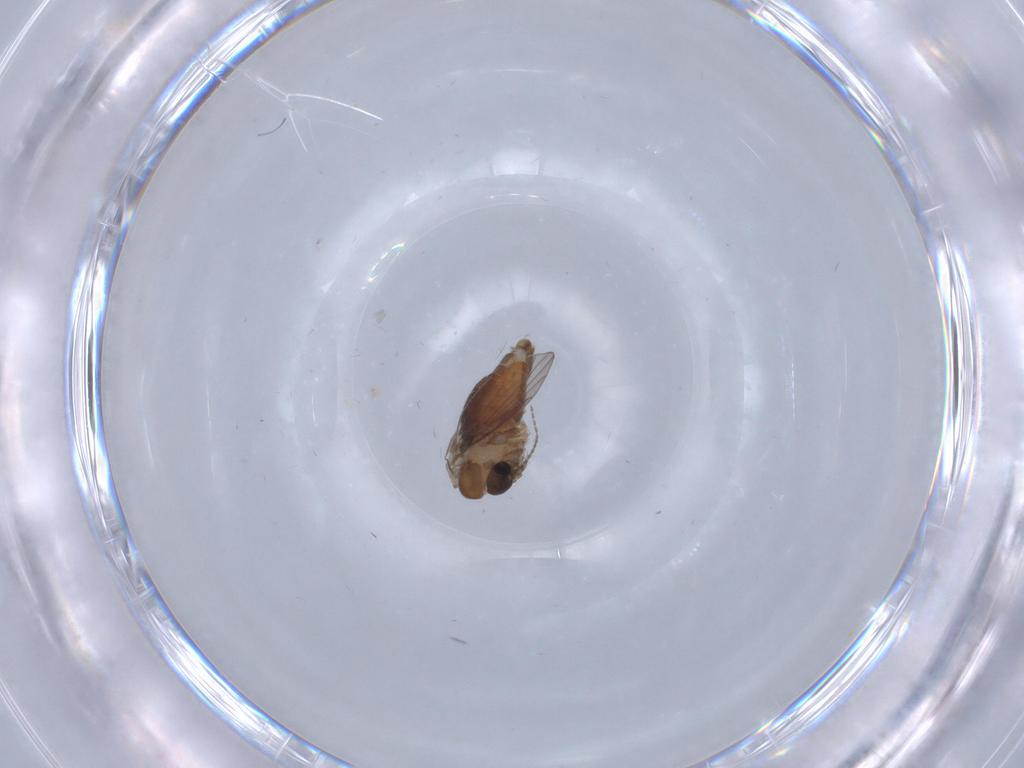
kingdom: Animalia
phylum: Arthropoda
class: Insecta
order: Diptera
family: Psychodidae
